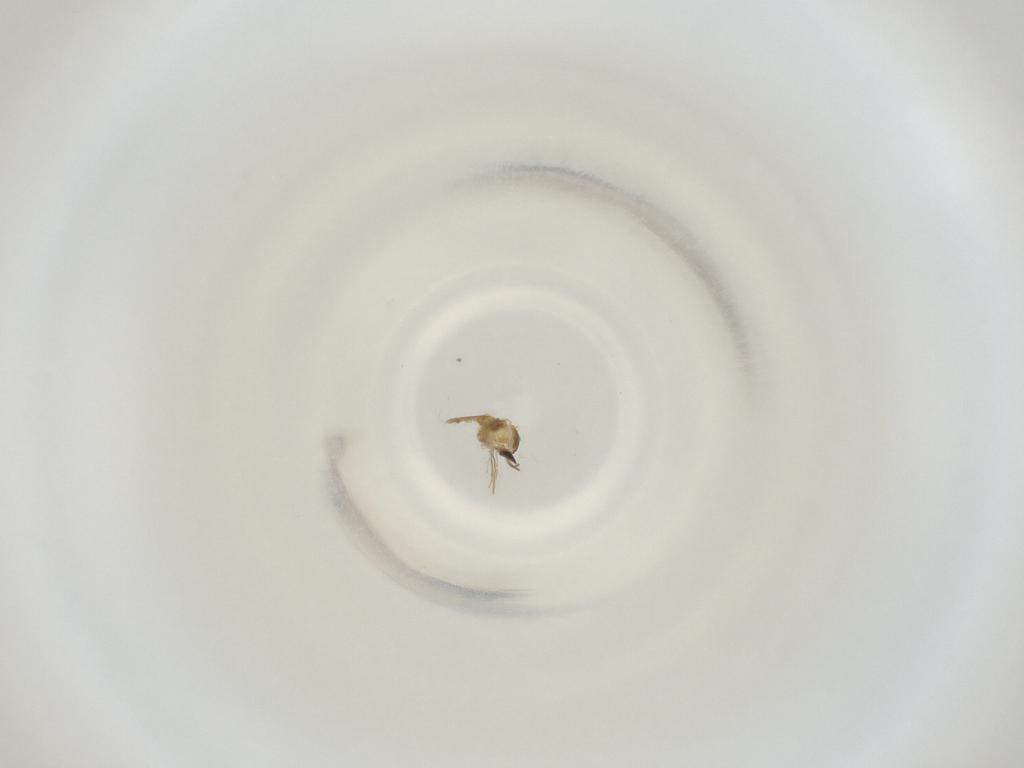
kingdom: Animalia
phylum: Arthropoda
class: Insecta
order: Diptera
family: Cecidomyiidae
